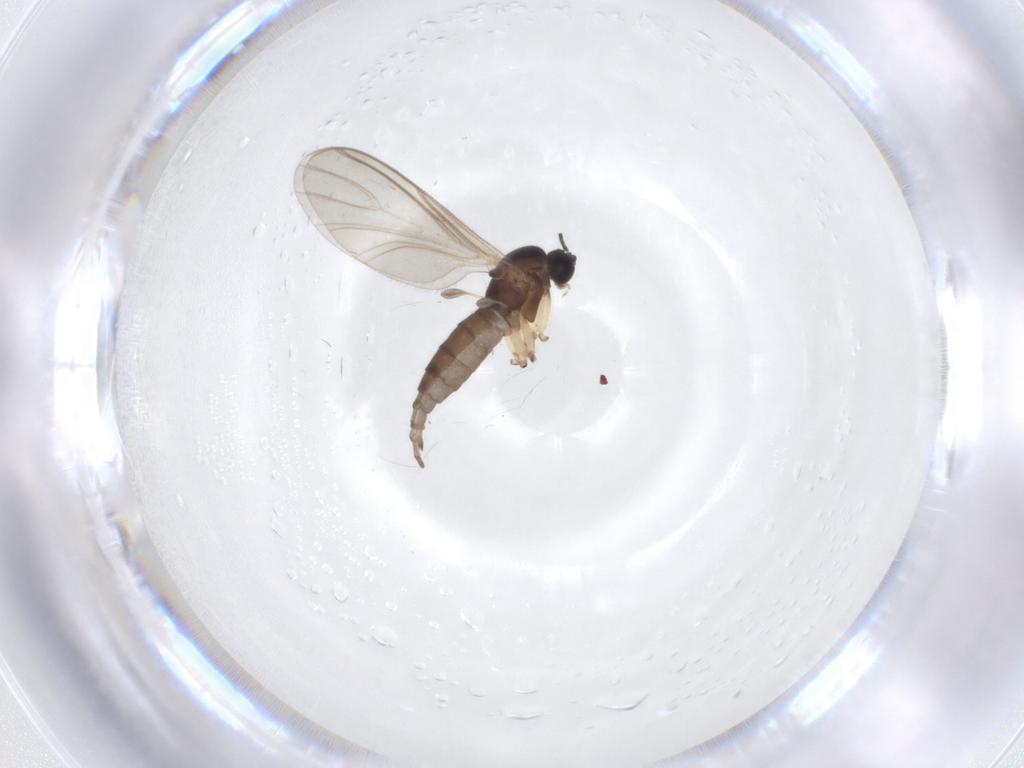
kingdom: Animalia
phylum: Arthropoda
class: Insecta
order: Diptera
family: Sciaridae
